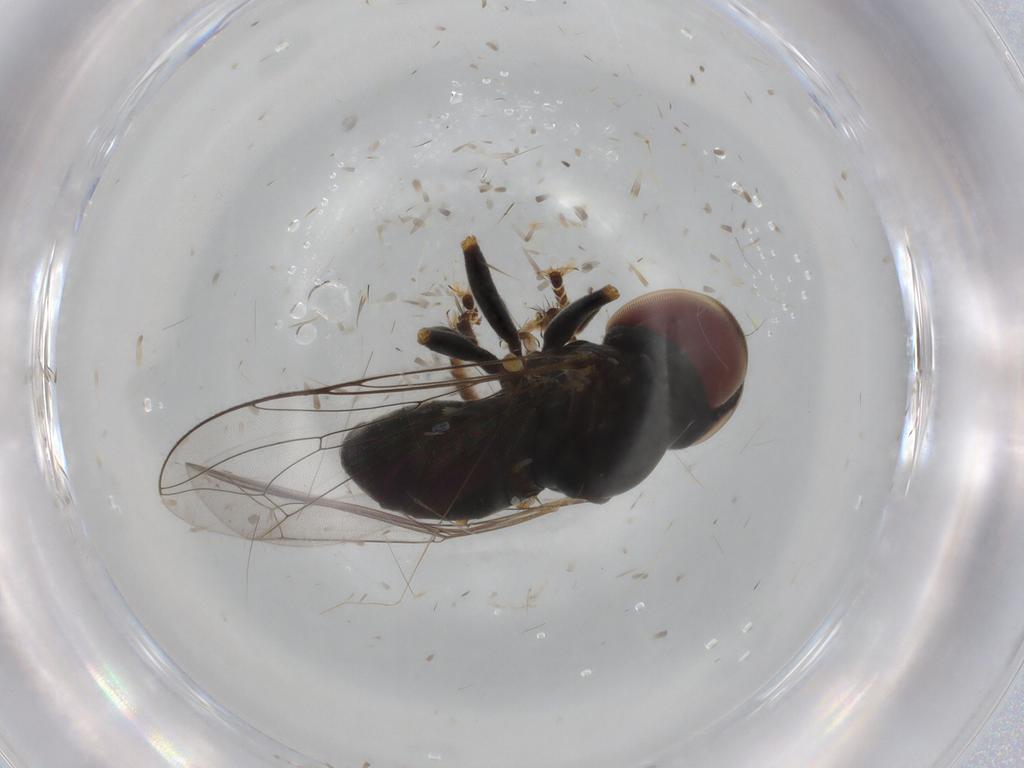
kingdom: Animalia
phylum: Arthropoda
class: Insecta
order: Diptera
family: Pipunculidae
